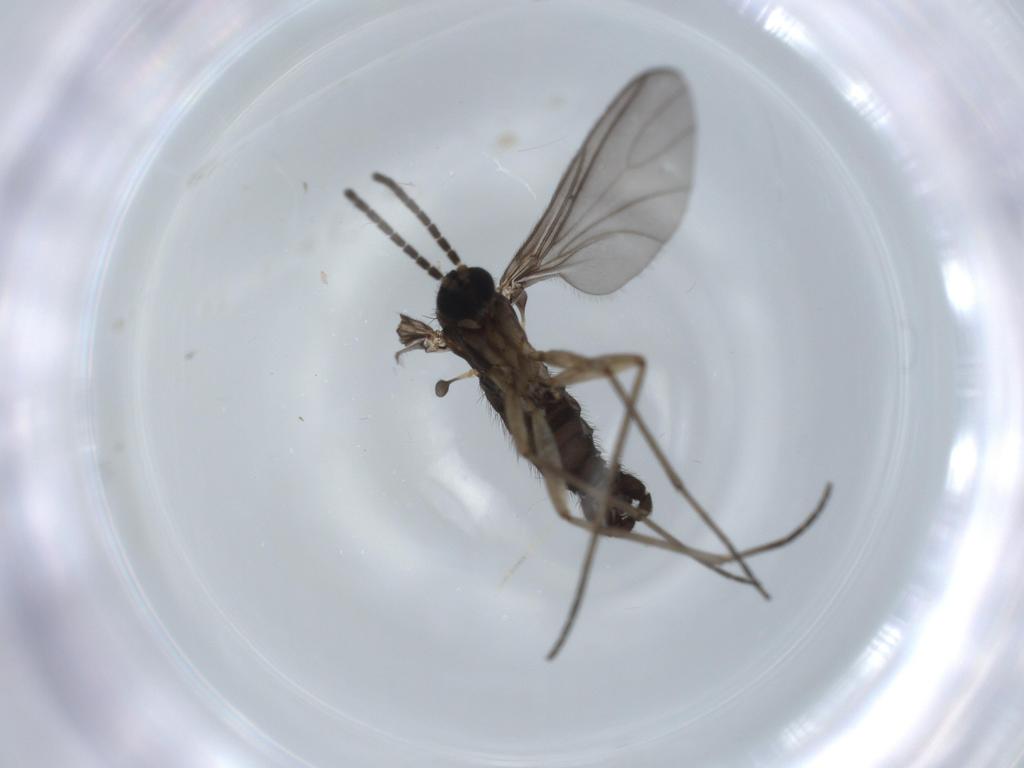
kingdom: Animalia
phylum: Arthropoda
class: Insecta
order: Diptera
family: Sciaridae
